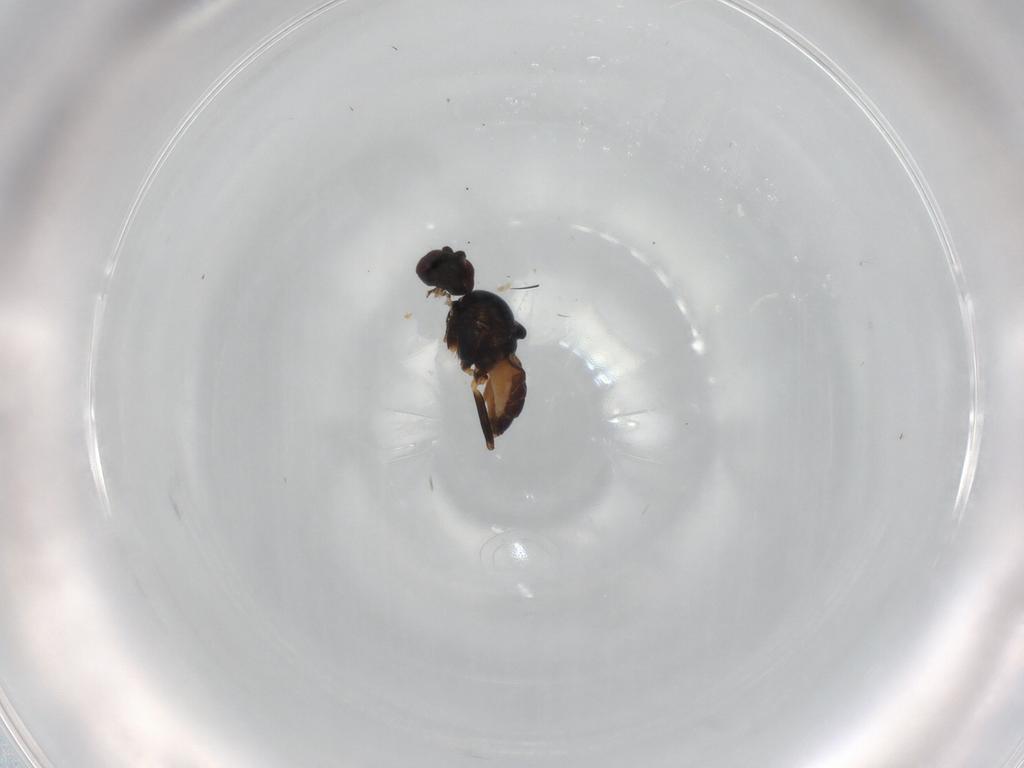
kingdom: Animalia
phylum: Arthropoda
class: Insecta
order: Diptera
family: Chloropidae
